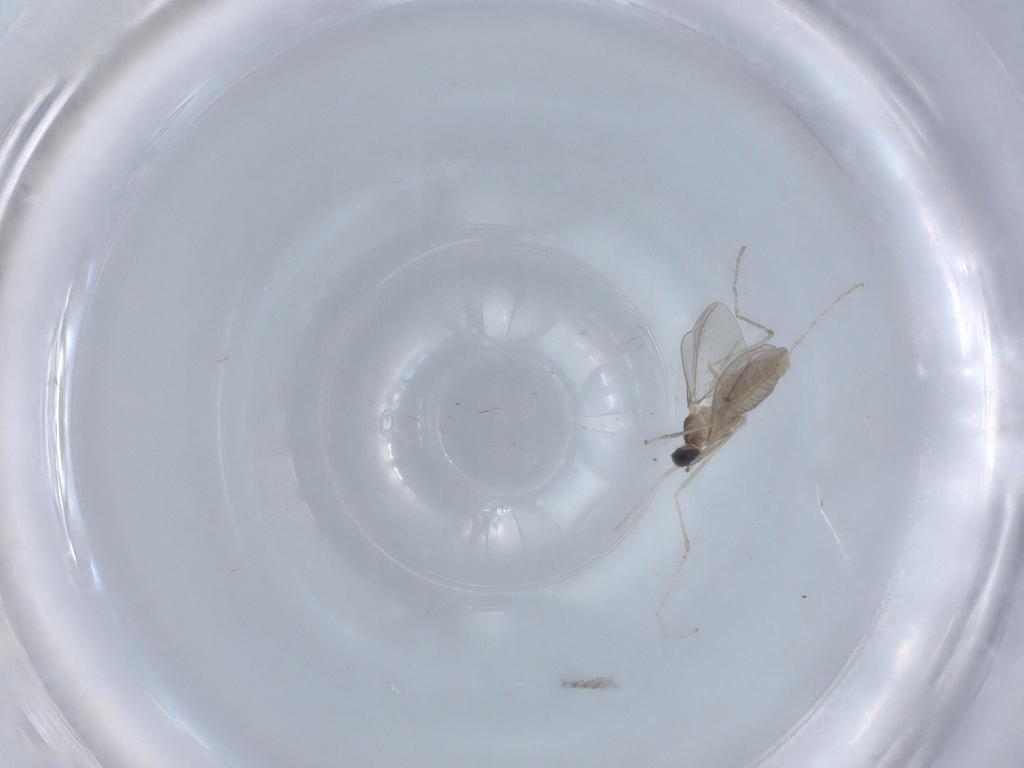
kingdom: Animalia
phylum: Arthropoda
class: Insecta
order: Diptera
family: Cecidomyiidae
